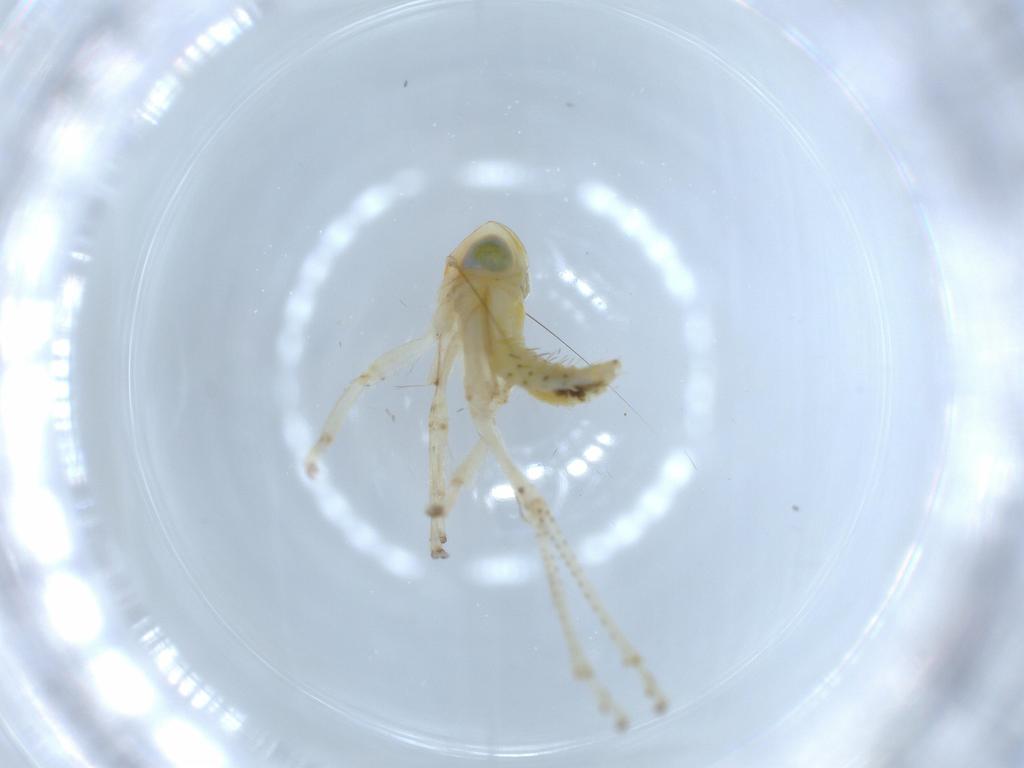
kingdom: Animalia
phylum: Arthropoda
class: Insecta
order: Hemiptera
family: Cicadellidae
